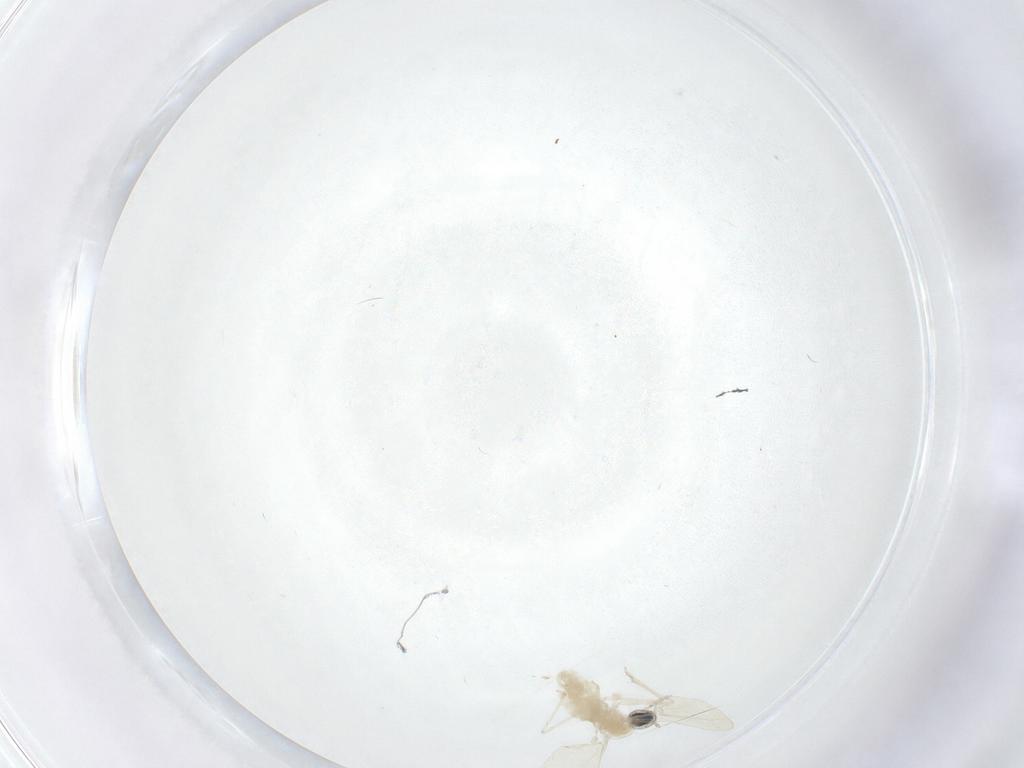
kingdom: Animalia
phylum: Arthropoda
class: Insecta
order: Diptera
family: Cecidomyiidae
